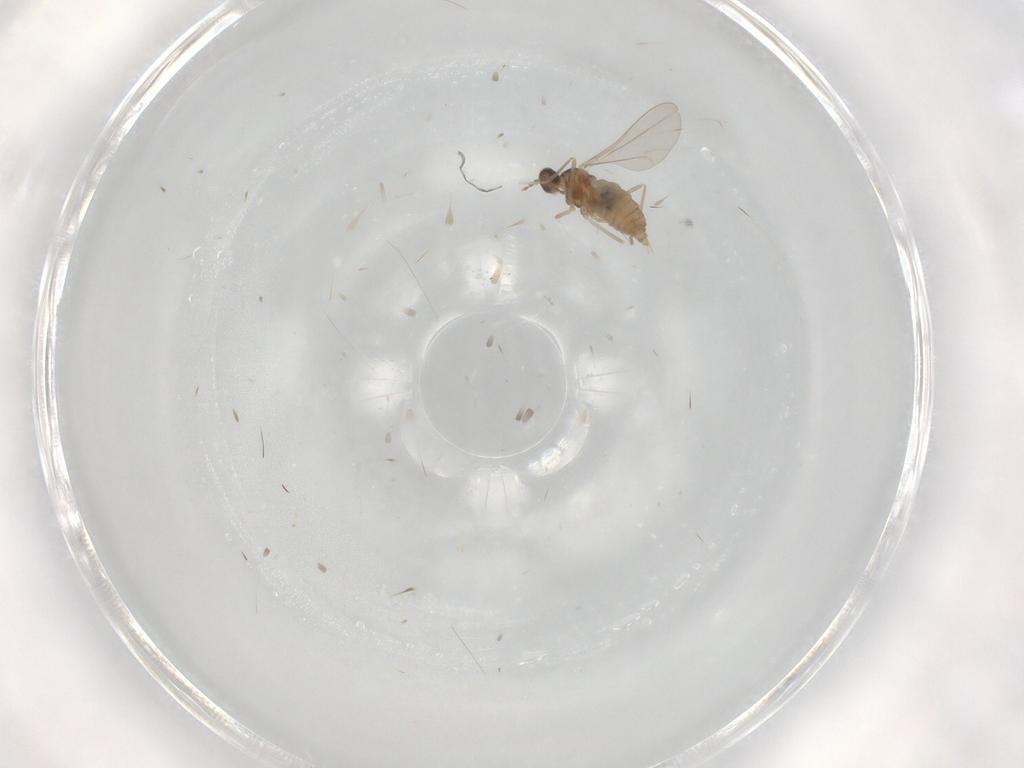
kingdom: Animalia
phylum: Arthropoda
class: Insecta
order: Diptera
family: Cecidomyiidae
